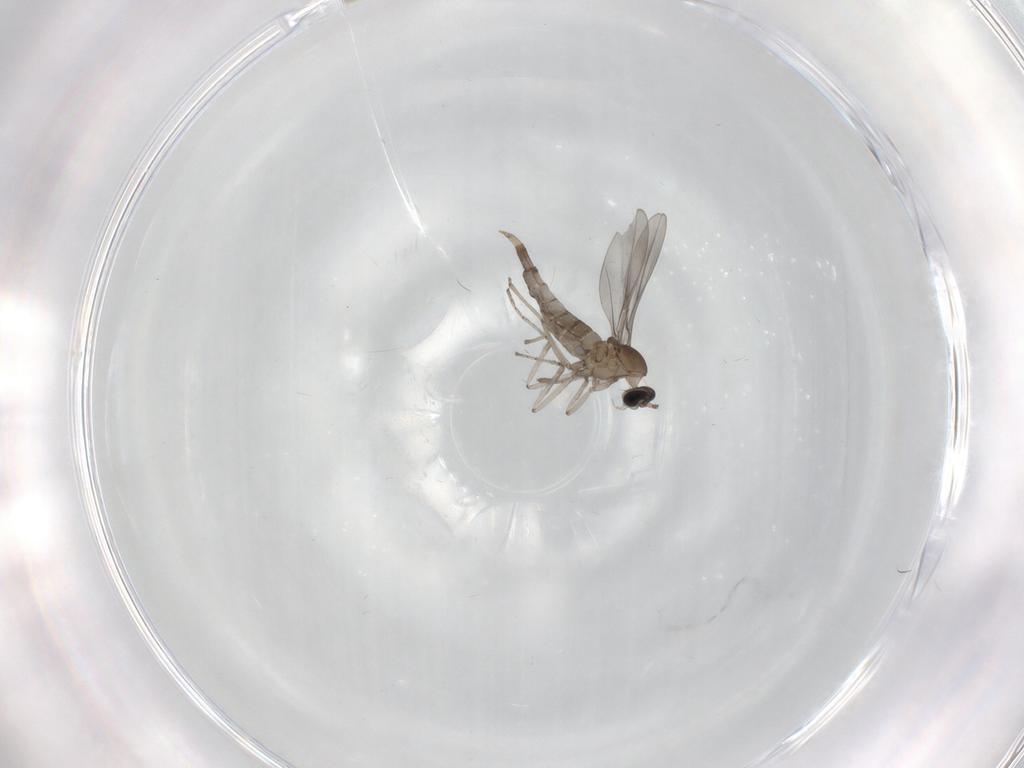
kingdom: Animalia
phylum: Arthropoda
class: Insecta
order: Diptera
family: Cecidomyiidae
